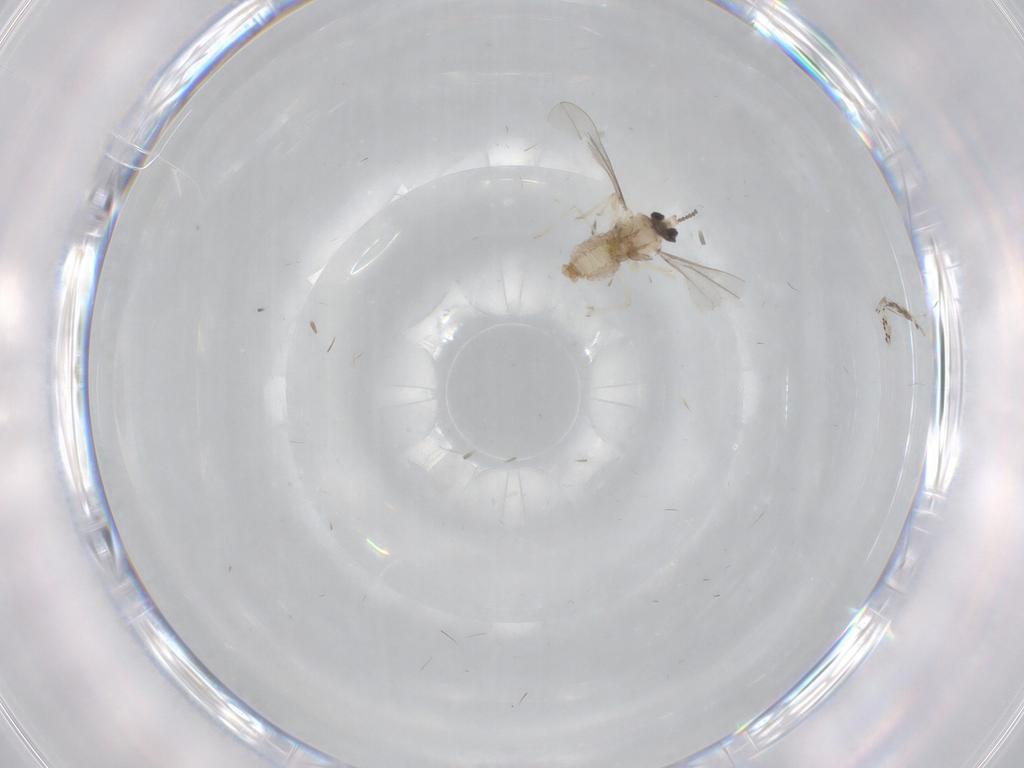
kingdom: Animalia
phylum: Arthropoda
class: Insecta
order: Diptera
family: Cecidomyiidae
